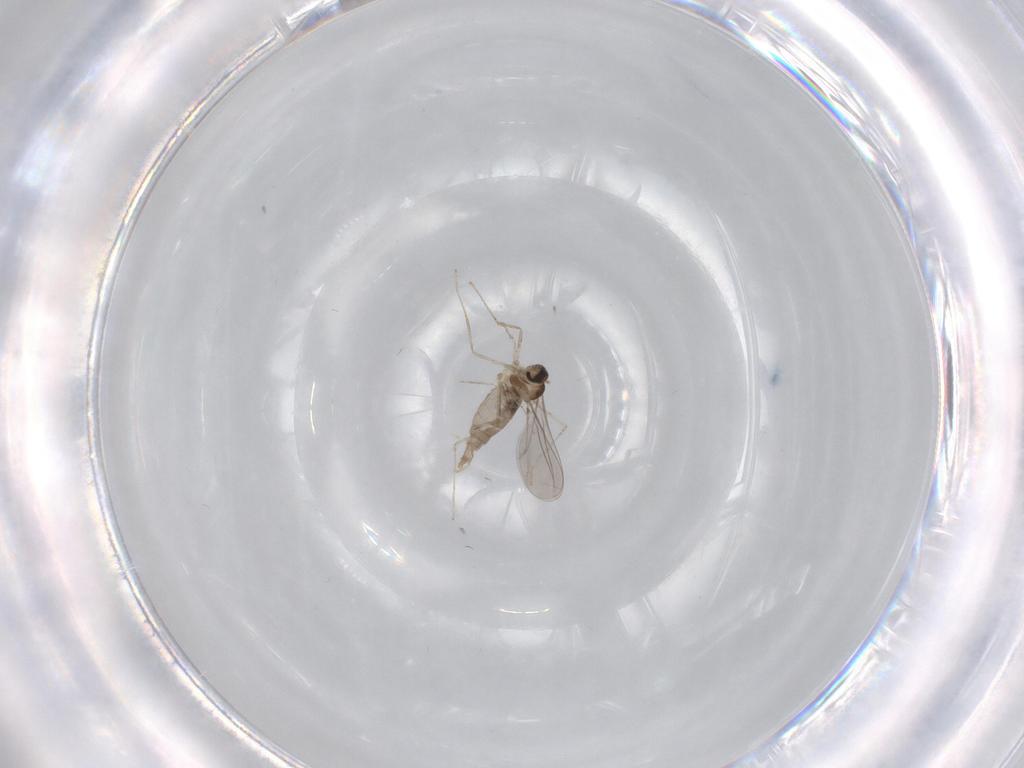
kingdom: Animalia
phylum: Arthropoda
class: Insecta
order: Diptera
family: Cecidomyiidae
